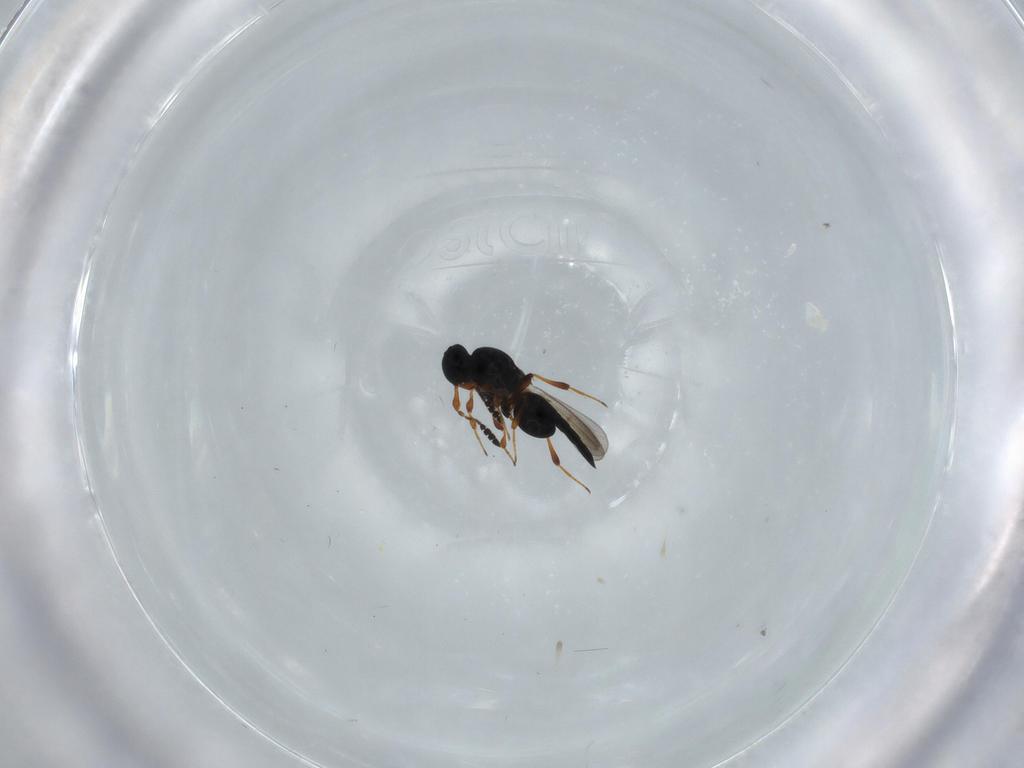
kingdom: Animalia
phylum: Arthropoda
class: Insecta
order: Hymenoptera
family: Platygastridae
